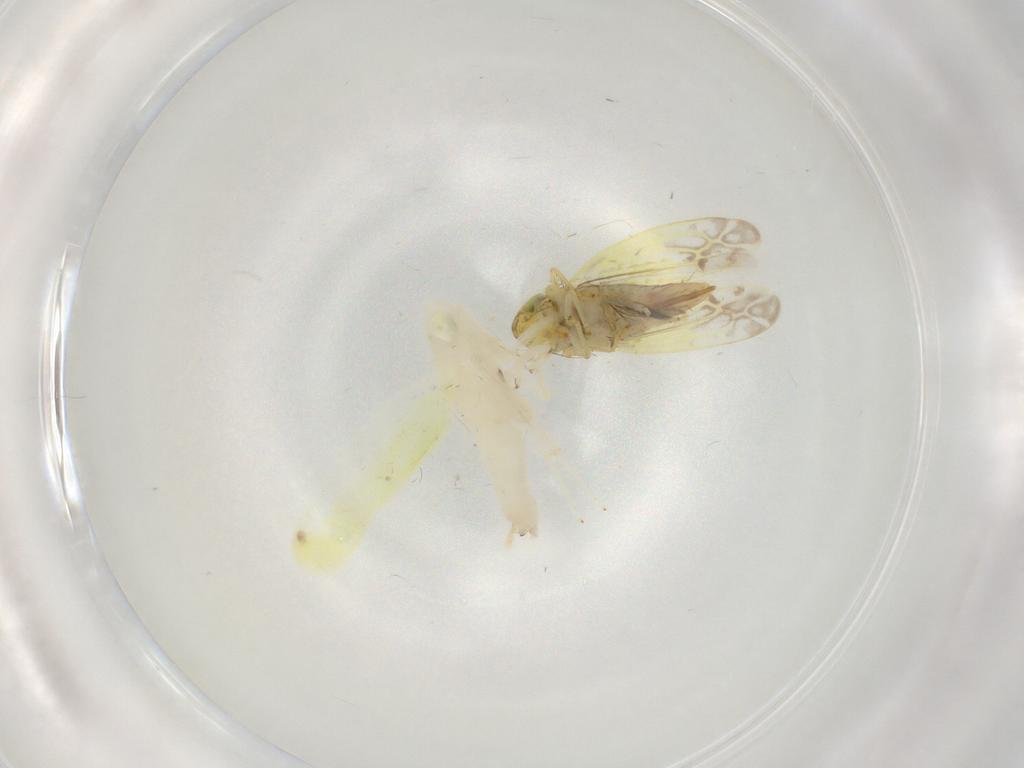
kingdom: Animalia
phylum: Arthropoda
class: Insecta
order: Hemiptera
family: Cicadellidae
